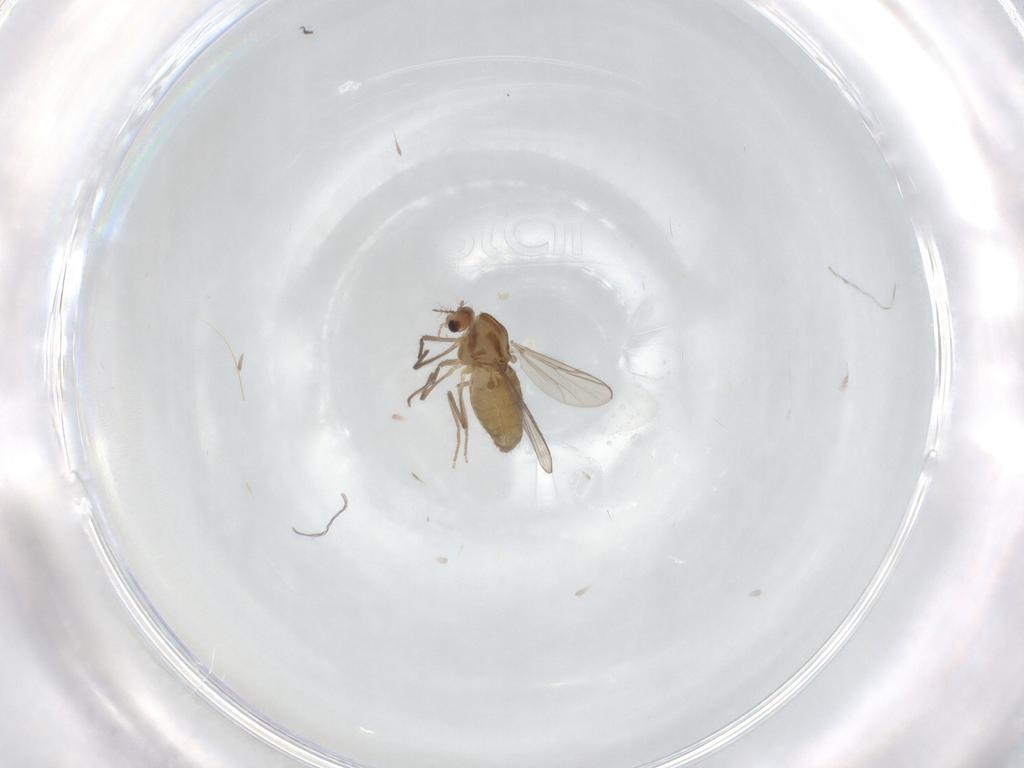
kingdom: Animalia
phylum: Arthropoda
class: Insecta
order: Diptera
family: Chironomidae
